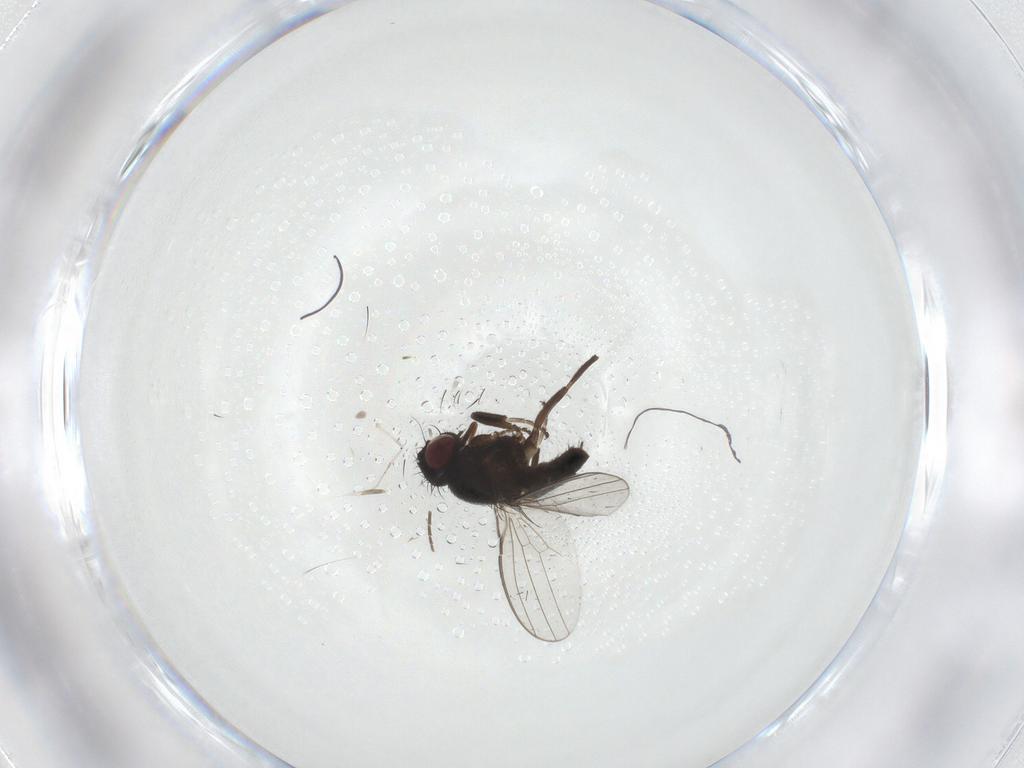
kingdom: Animalia
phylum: Arthropoda
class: Insecta
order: Diptera
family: Milichiidae
